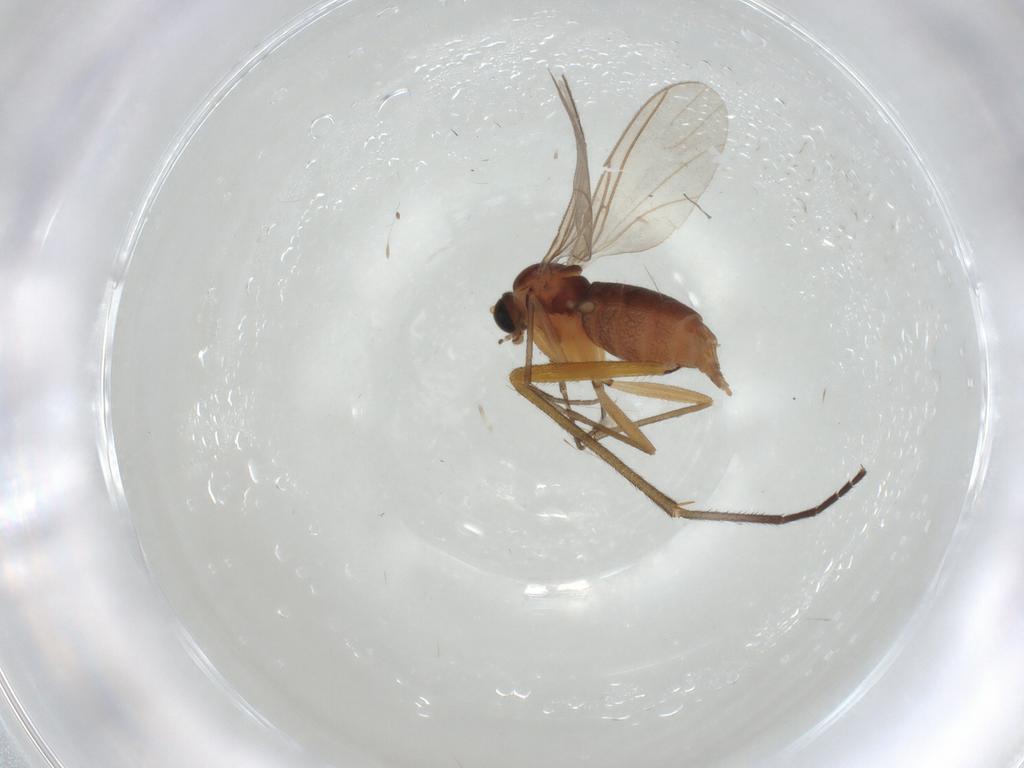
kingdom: Animalia
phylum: Arthropoda
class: Insecta
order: Diptera
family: Sciaridae
